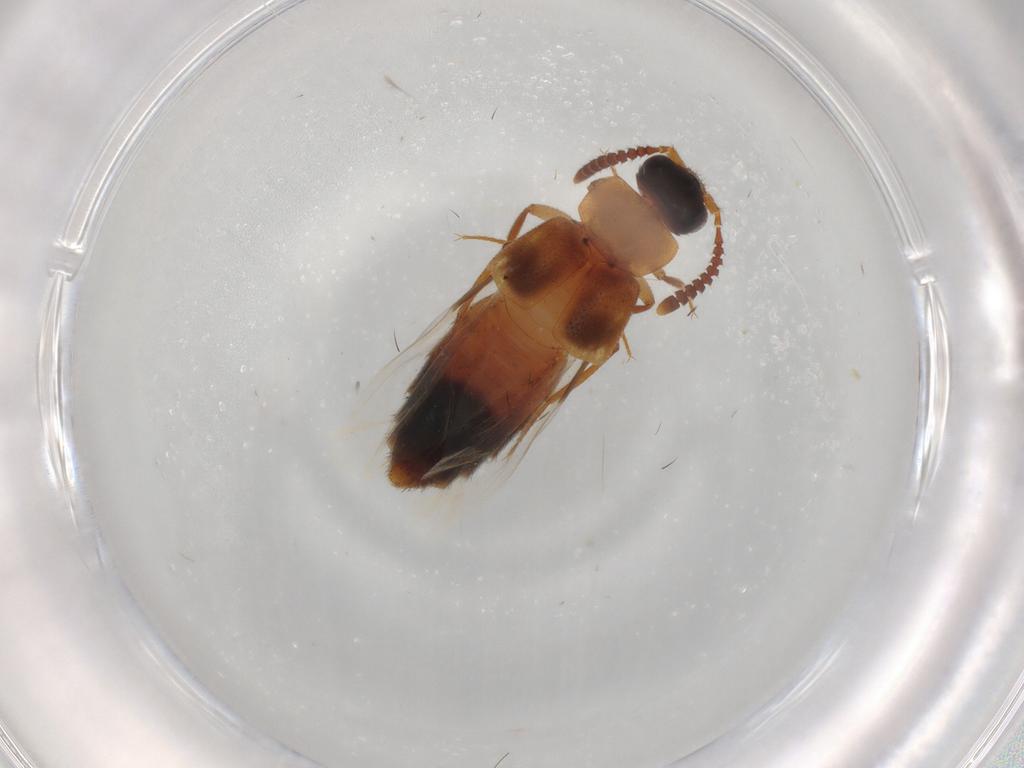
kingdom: Animalia
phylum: Arthropoda
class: Insecta
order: Coleoptera
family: Staphylinidae
